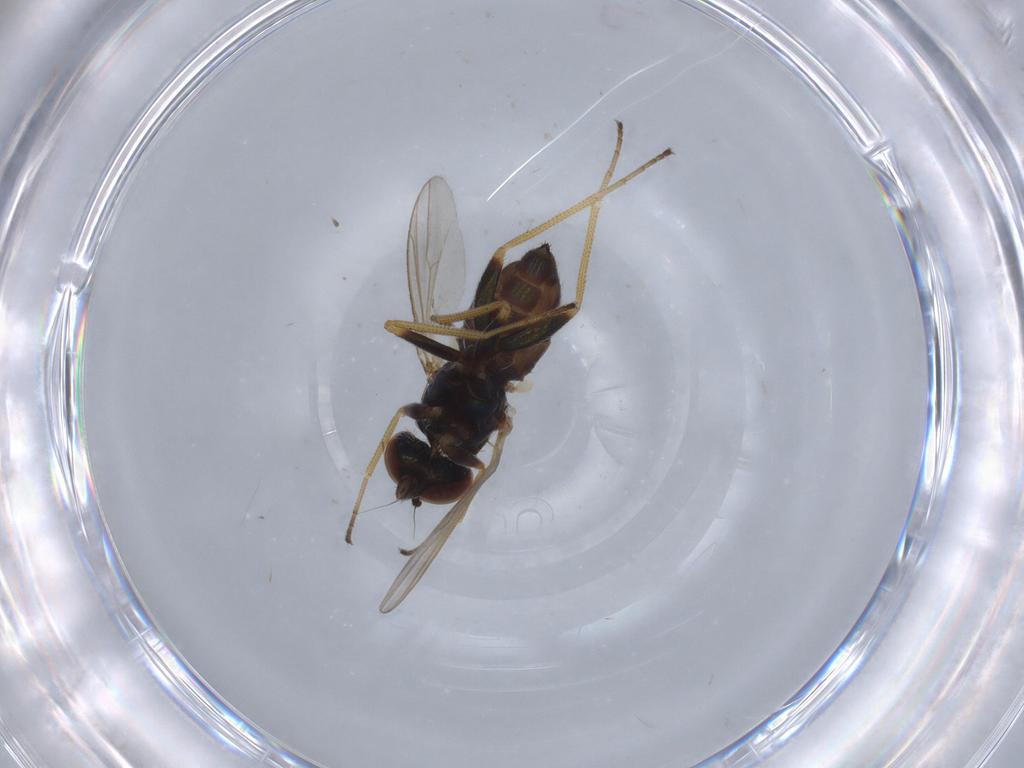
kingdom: Animalia
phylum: Arthropoda
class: Insecta
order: Diptera
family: Dolichopodidae
